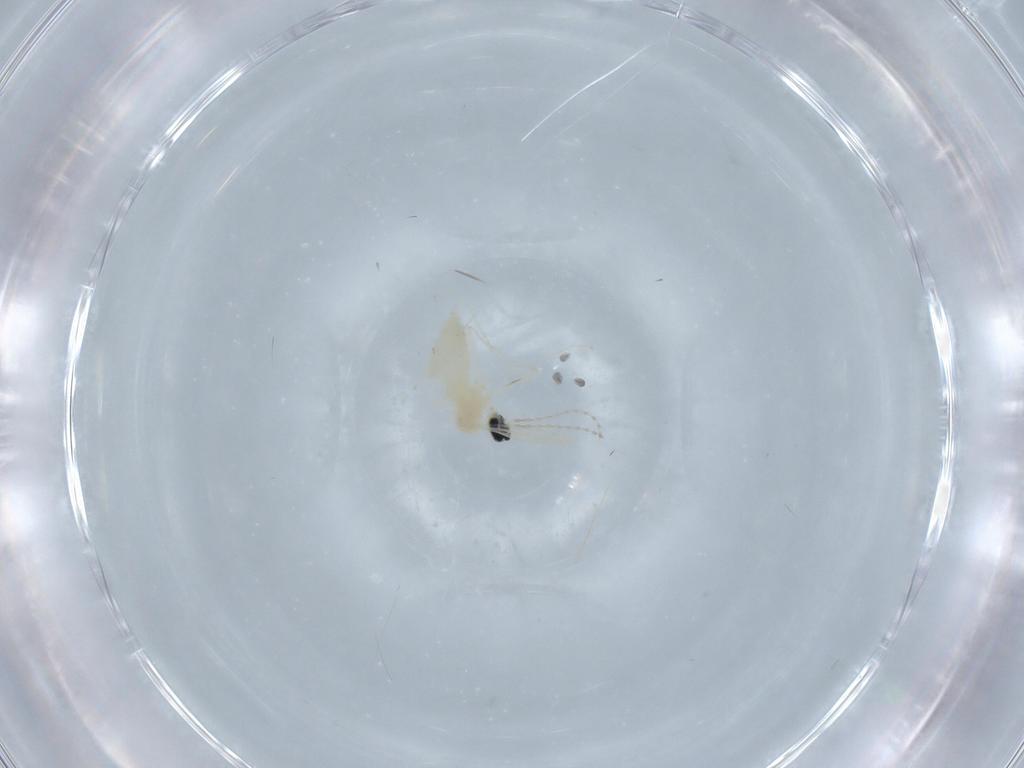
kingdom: Animalia
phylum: Arthropoda
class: Insecta
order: Diptera
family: Cecidomyiidae
